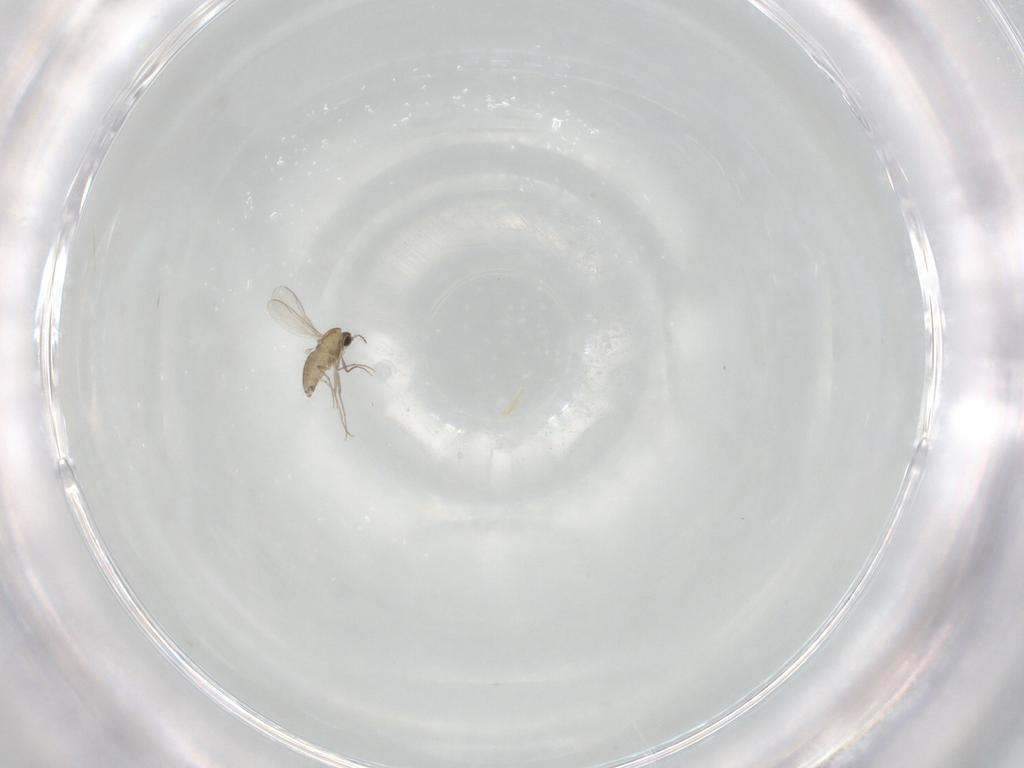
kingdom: Animalia
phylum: Arthropoda
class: Insecta
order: Diptera
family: Chironomidae
